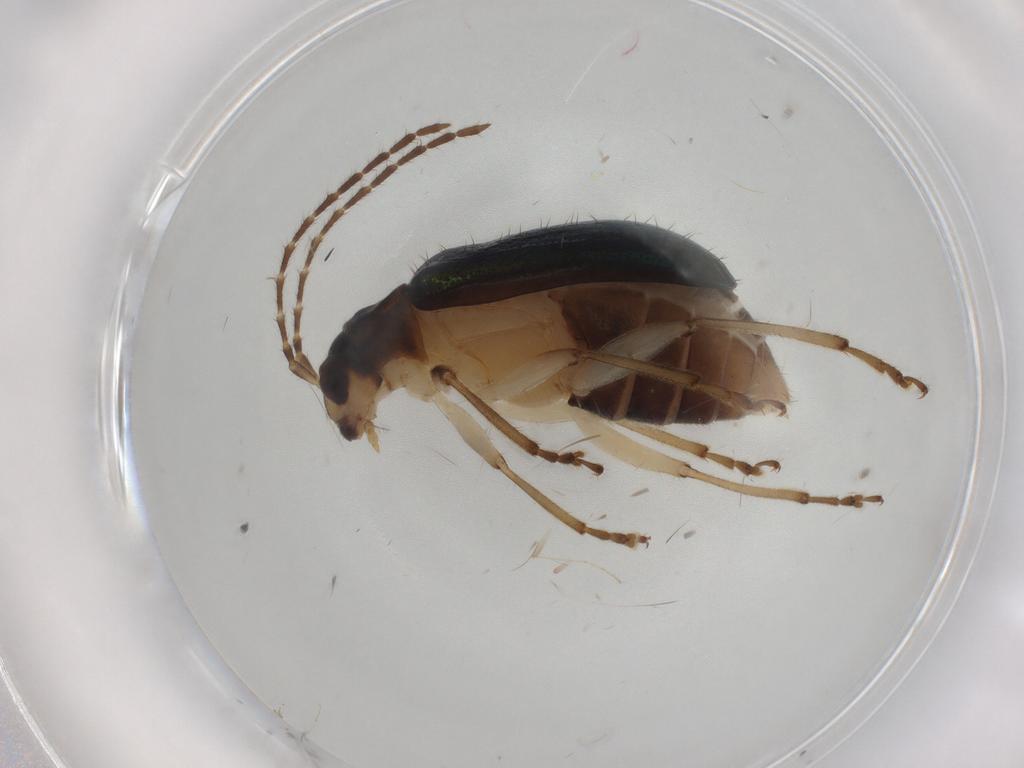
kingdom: Animalia
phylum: Arthropoda
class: Insecta
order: Coleoptera
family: Chrysomelidae
